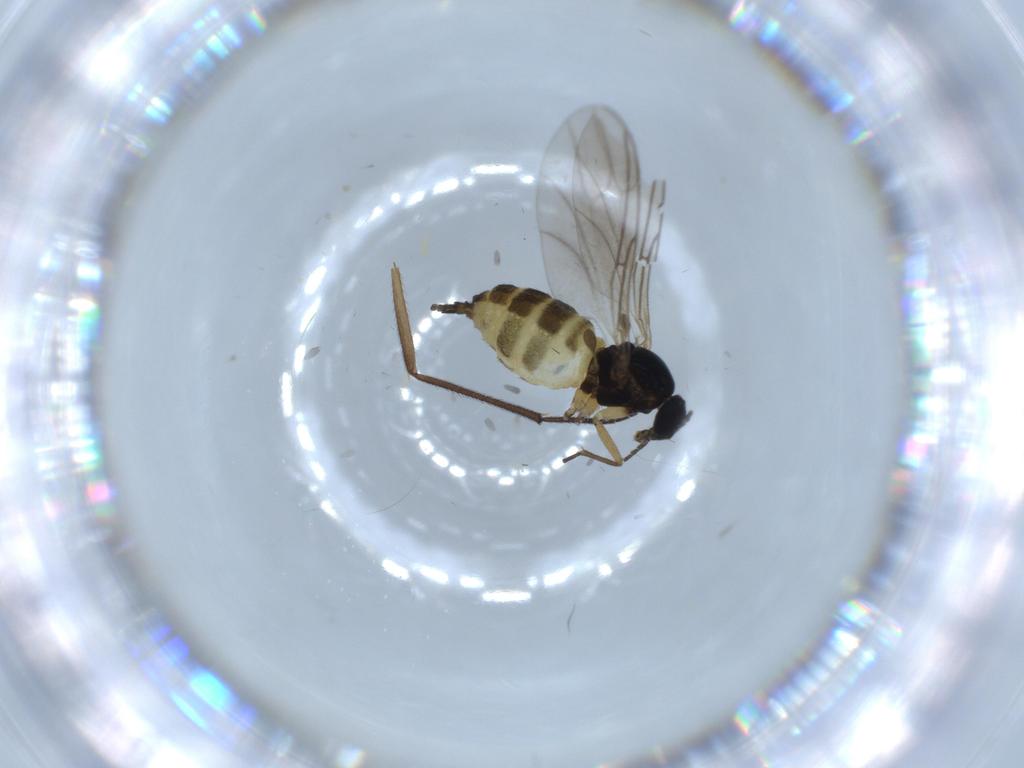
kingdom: Animalia
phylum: Arthropoda
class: Insecta
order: Diptera
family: Sciaridae
